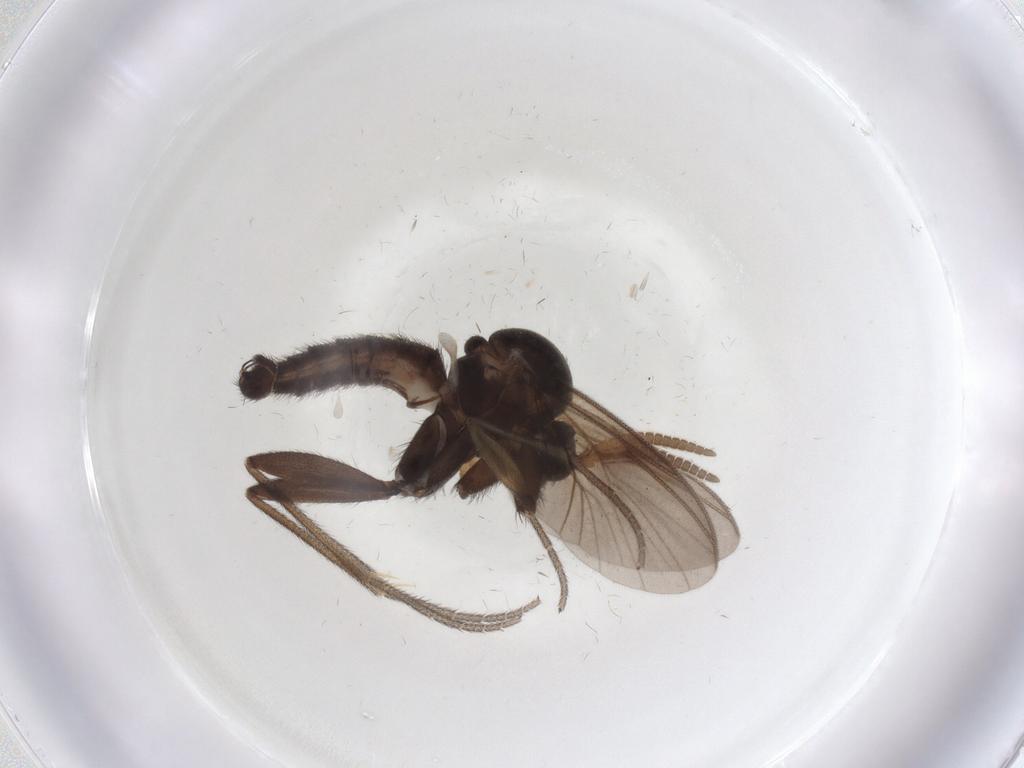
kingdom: Animalia
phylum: Arthropoda
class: Insecta
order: Diptera
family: Mycetophilidae
